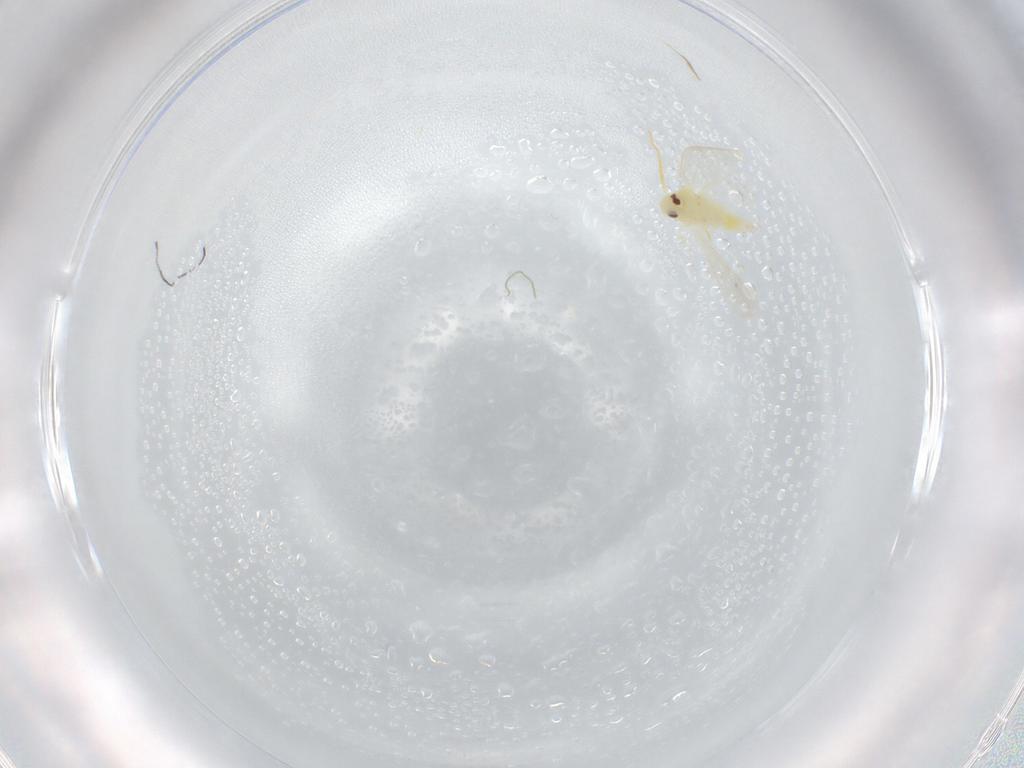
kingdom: Animalia
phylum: Arthropoda
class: Insecta
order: Hemiptera
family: Aleyrodidae
